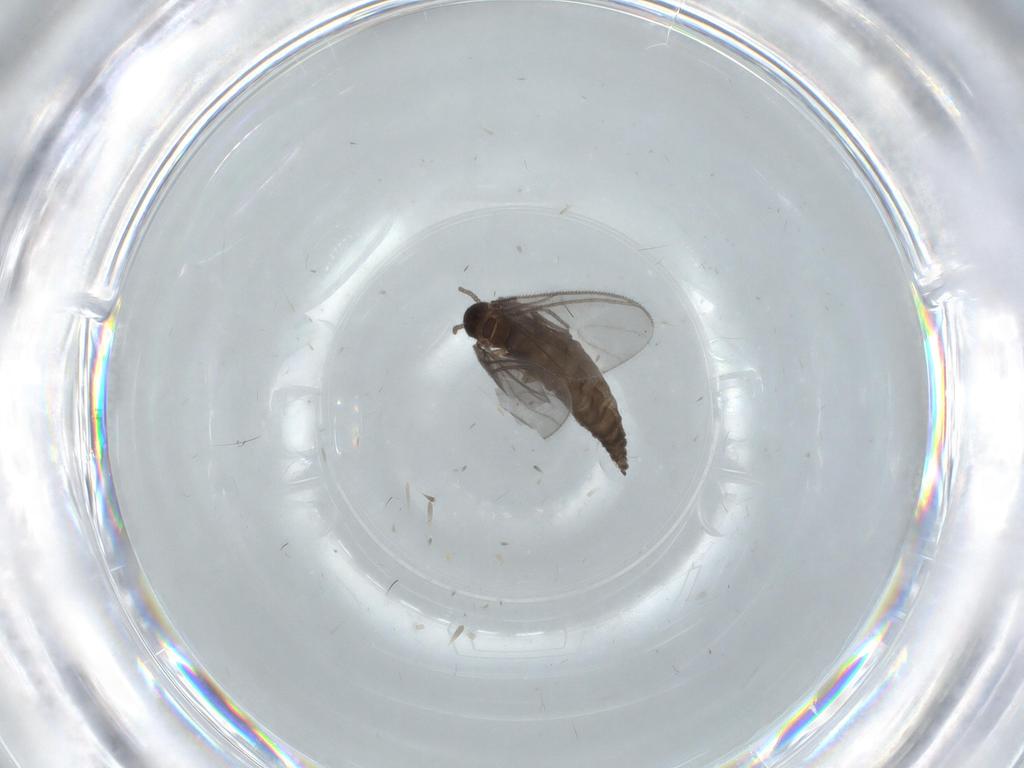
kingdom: Animalia
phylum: Arthropoda
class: Insecta
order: Diptera
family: Sciaridae
